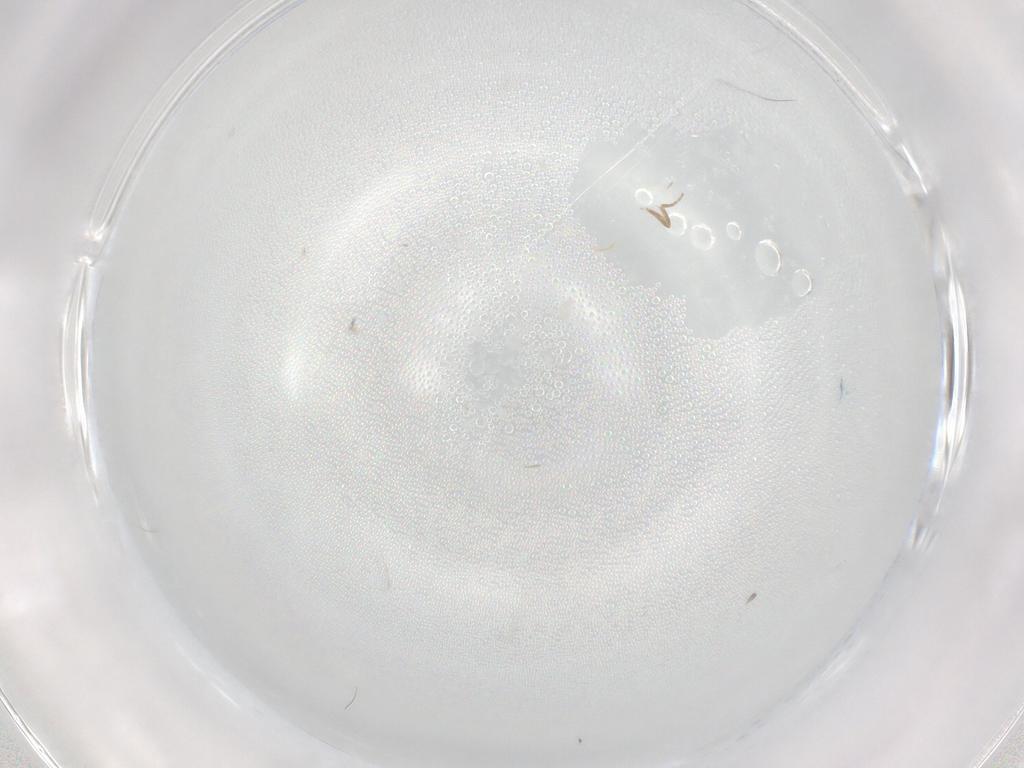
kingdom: Animalia
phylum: Arthropoda
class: Insecta
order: Diptera
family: Phoridae
